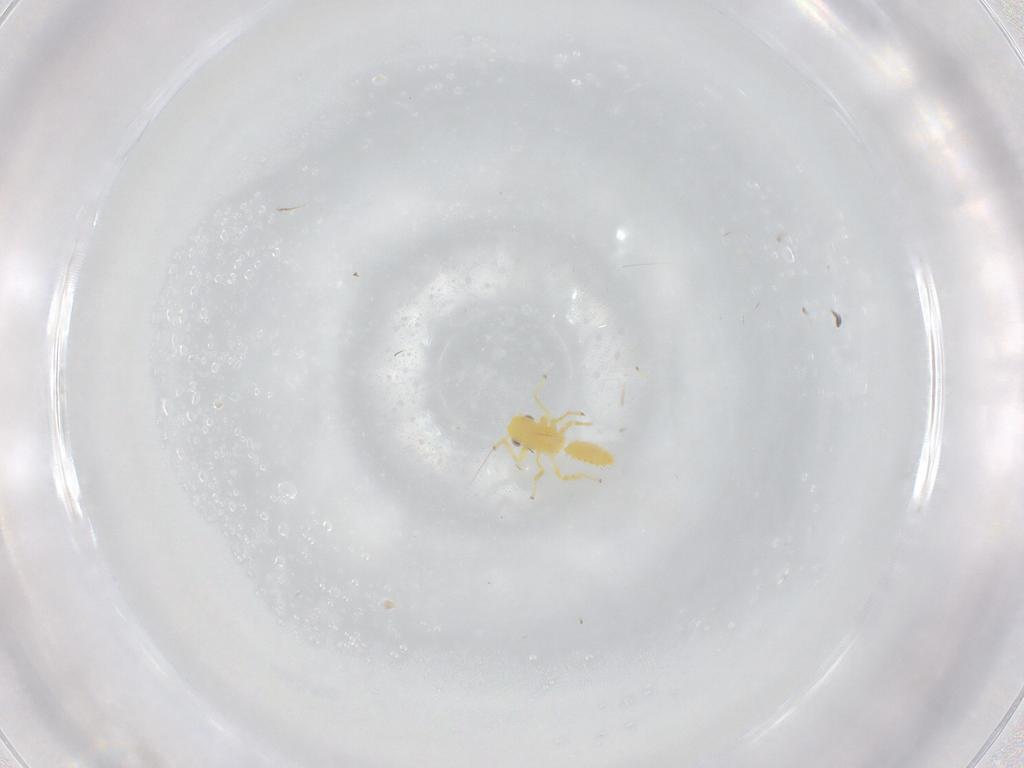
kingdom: Animalia
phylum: Arthropoda
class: Insecta
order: Hemiptera
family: Cicadellidae
